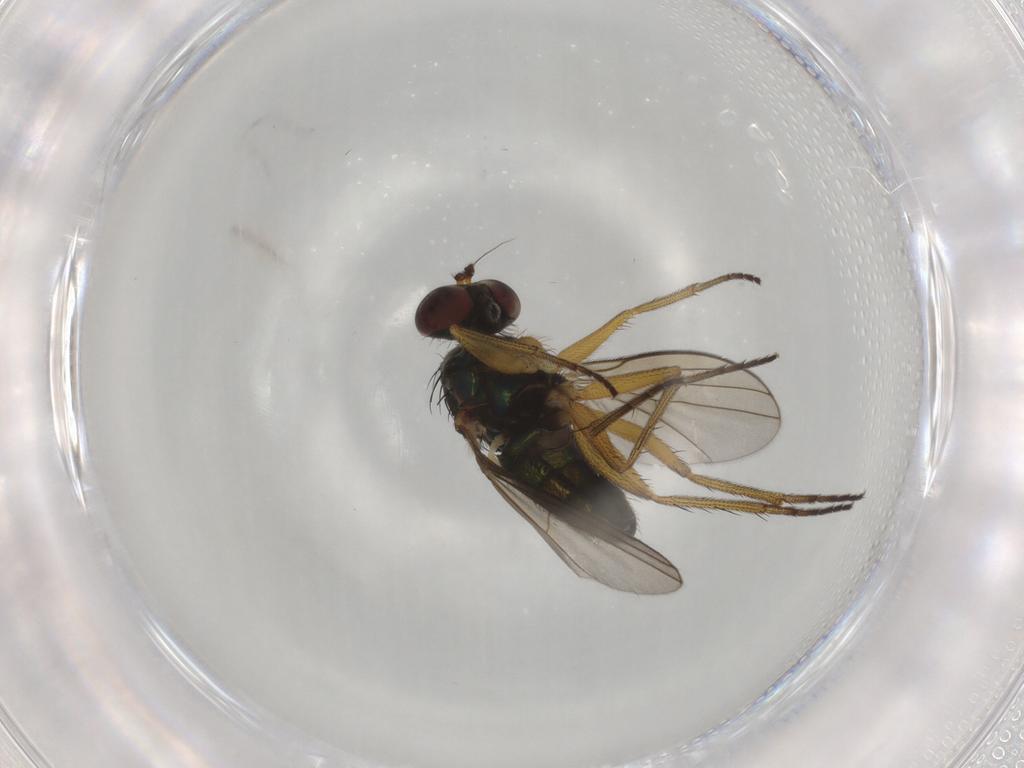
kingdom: Animalia
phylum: Arthropoda
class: Insecta
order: Diptera
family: Dolichopodidae
